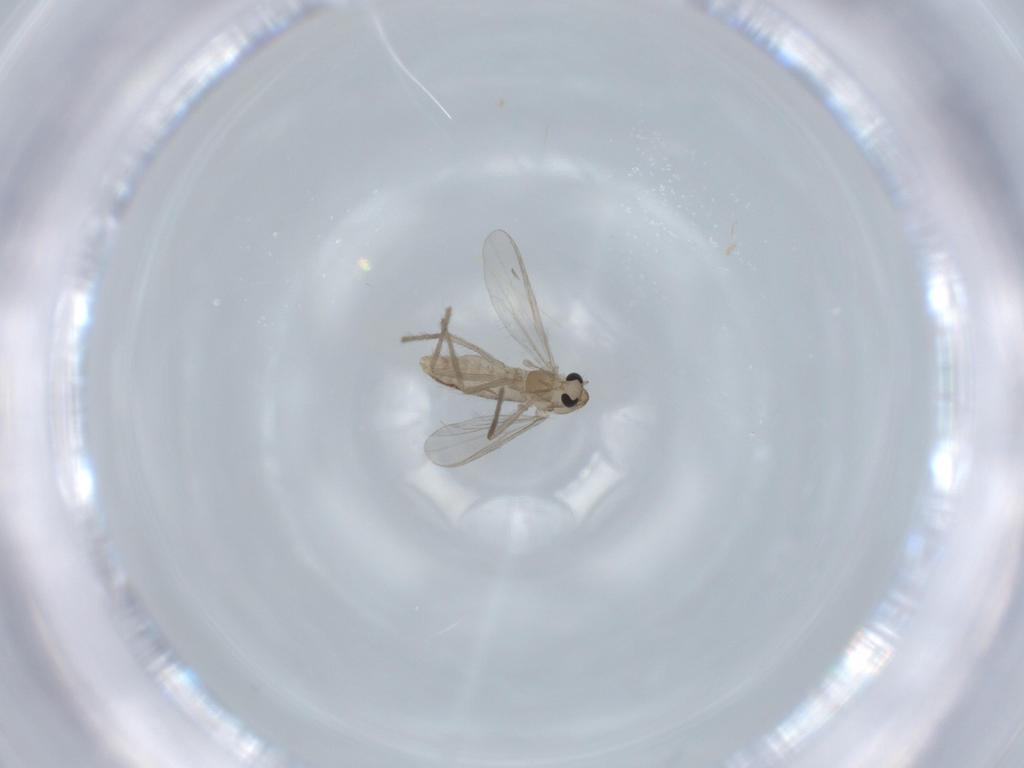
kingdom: Animalia
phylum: Arthropoda
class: Insecta
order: Diptera
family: Chironomidae
